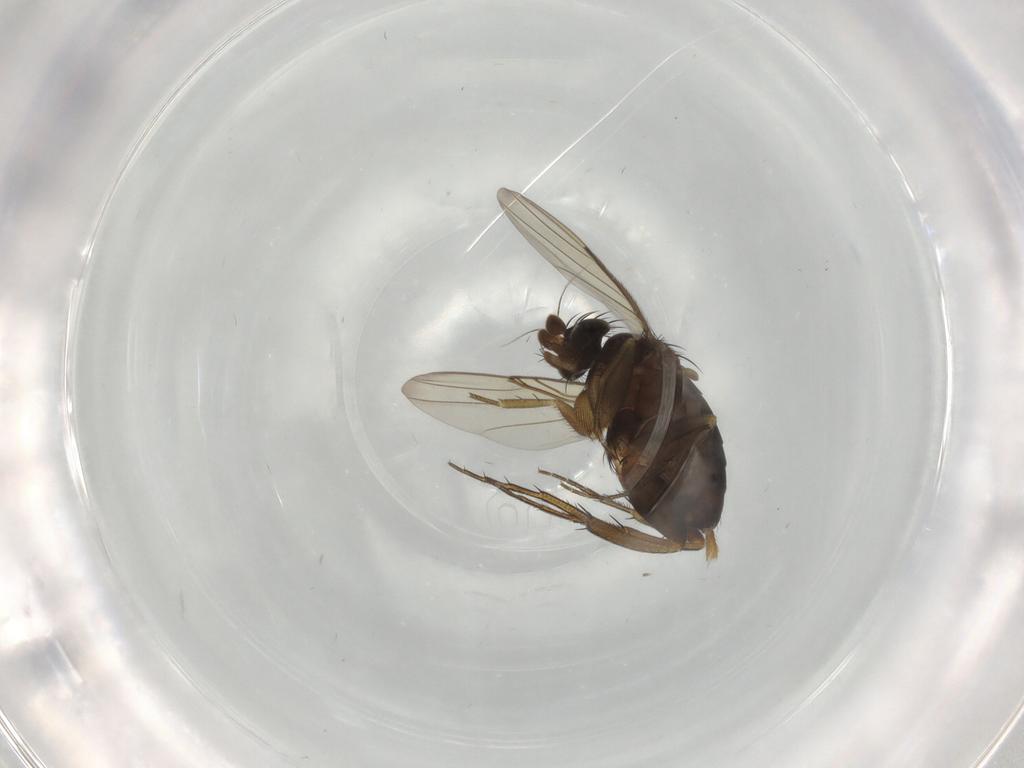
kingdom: Animalia
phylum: Arthropoda
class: Insecta
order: Diptera
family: Phoridae
